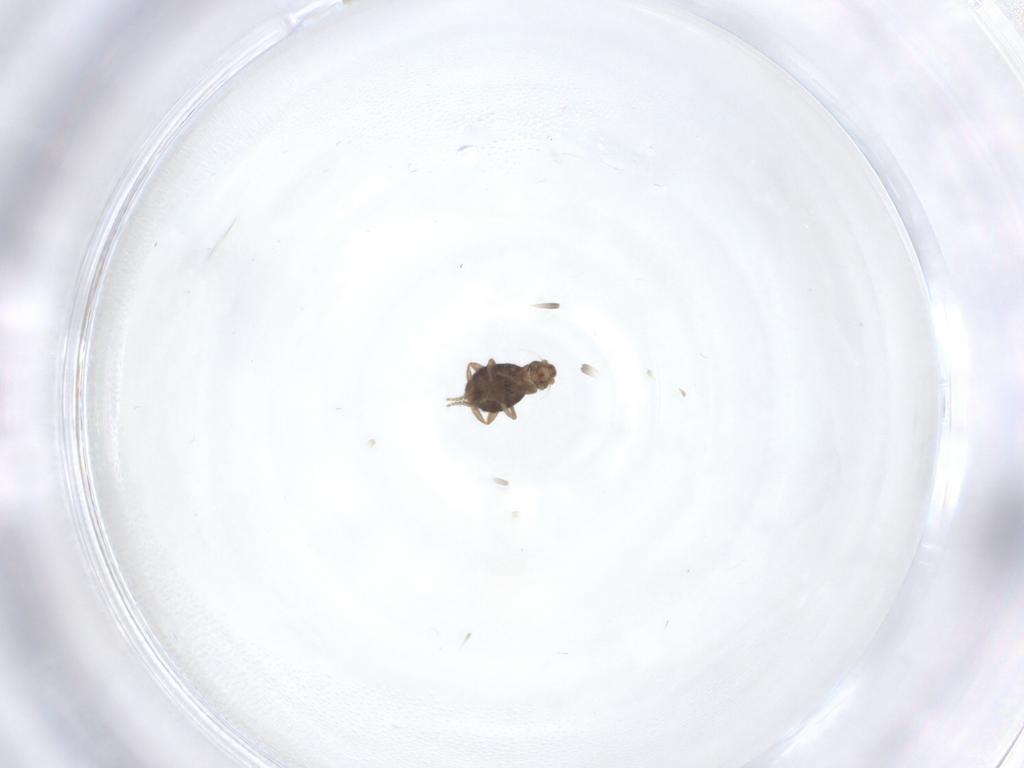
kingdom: Animalia
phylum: Arthropoda
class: Insecta
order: Diptera
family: Phoridae
